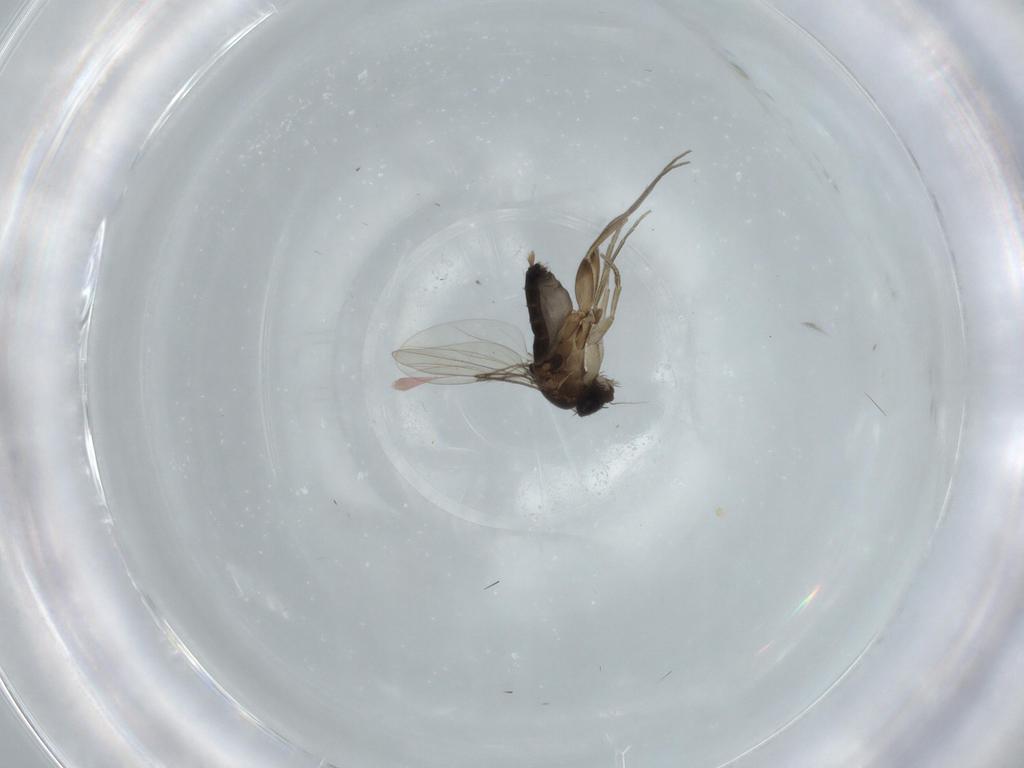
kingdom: Animalia
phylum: Arthropoda
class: Insecta
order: Diptera
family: Phoridae
